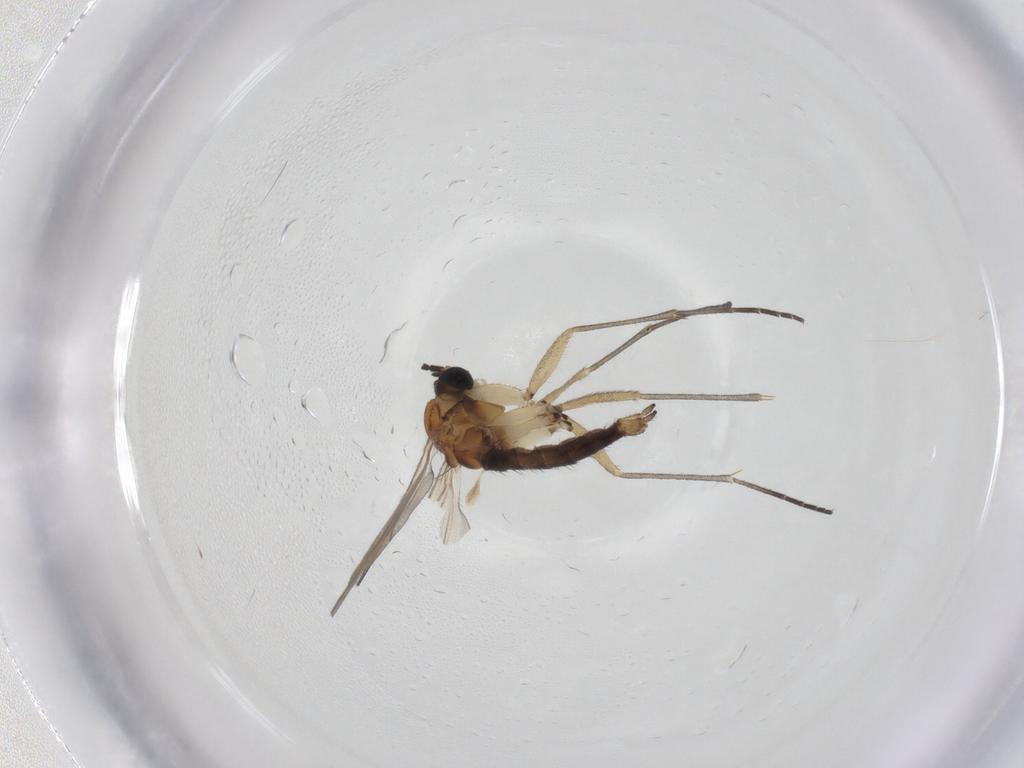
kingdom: Animalia
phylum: Arthropoda
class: Insecta
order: Diptera
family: Sciaridae
